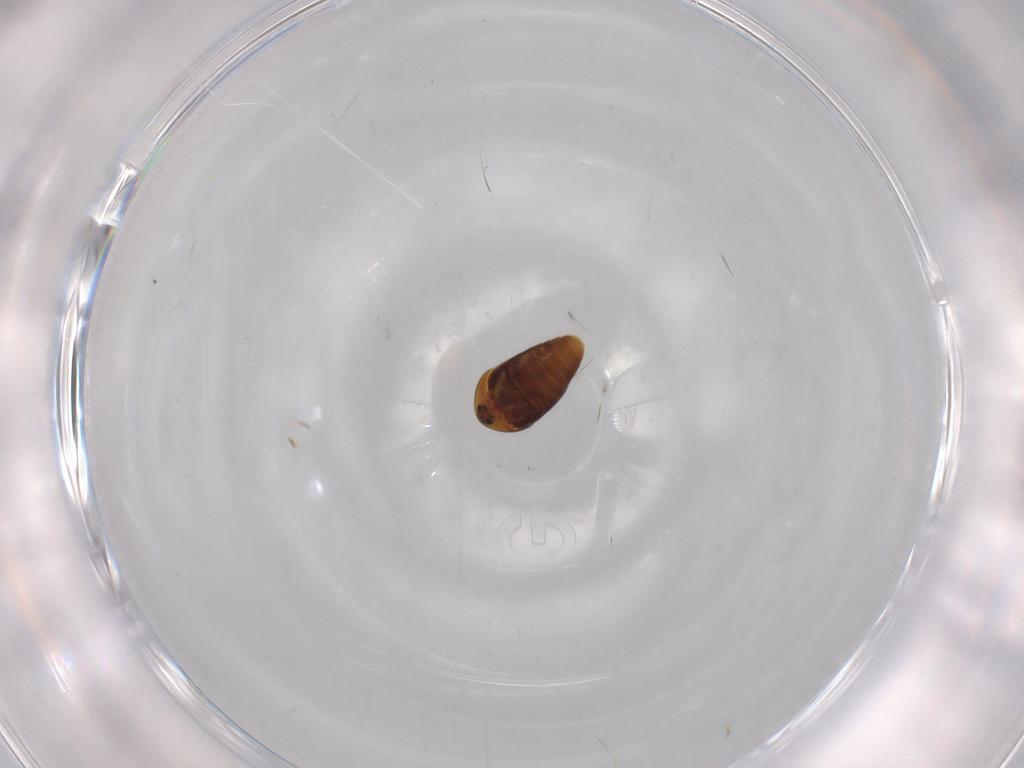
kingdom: Animalia
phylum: Arthropoda
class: Insecta
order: Coleoptera
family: Corylophidae
